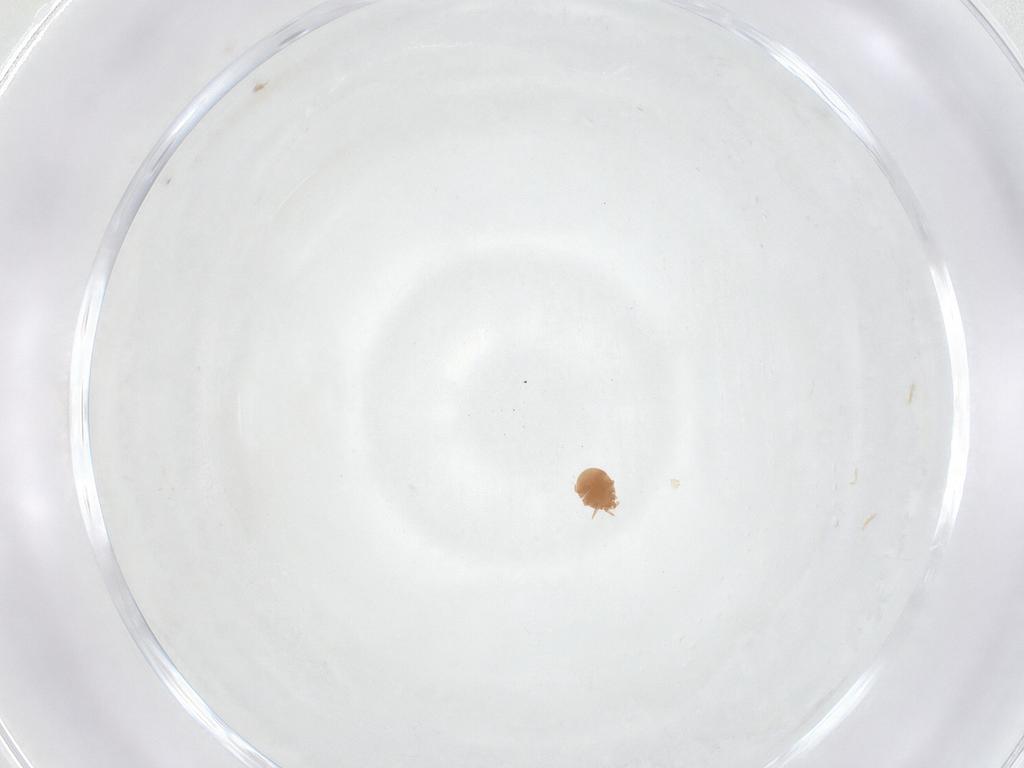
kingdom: Animalia
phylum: Arthropoda
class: Arachnida
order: Mesostigmata
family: Trematuridae
